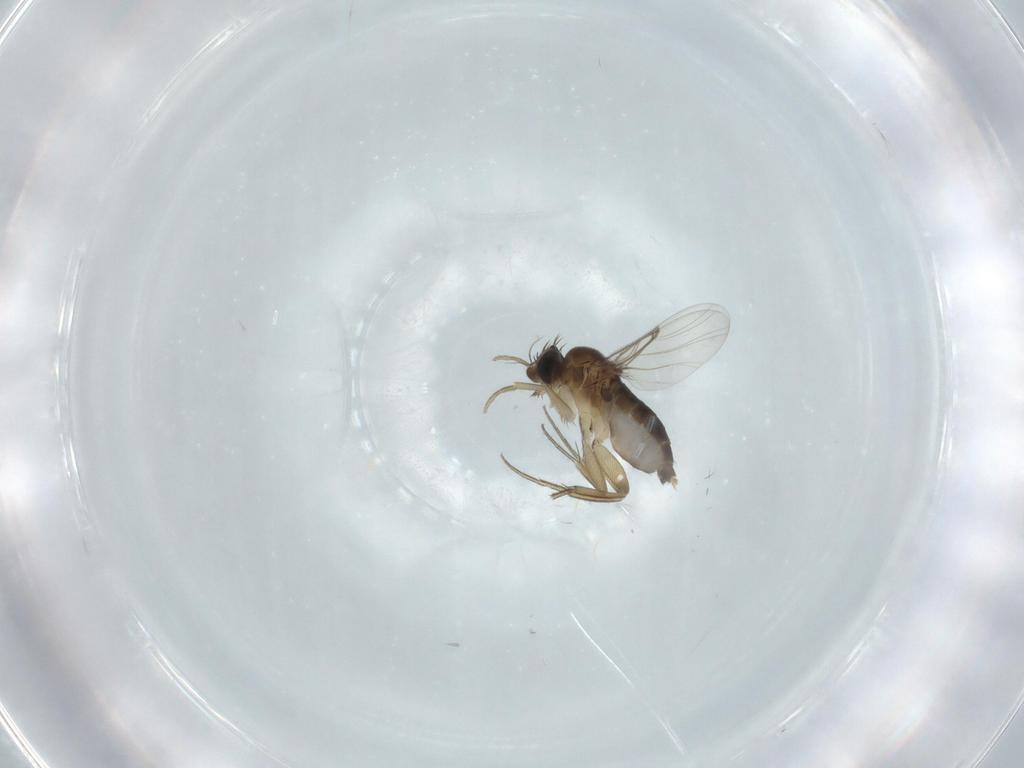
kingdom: Animalia
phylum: Arthropoda
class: Insecta
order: Diptera
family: Phoridae
